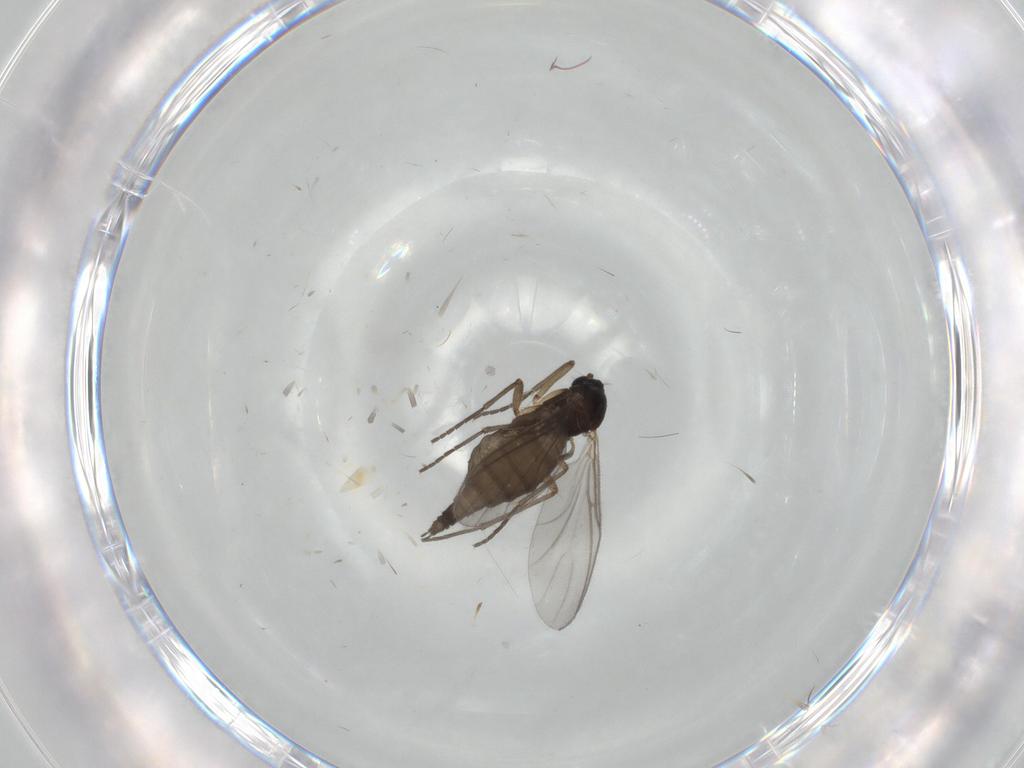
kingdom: Animalia
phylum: Arthropoda
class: Insecta
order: Diptera
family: Sciaridae
